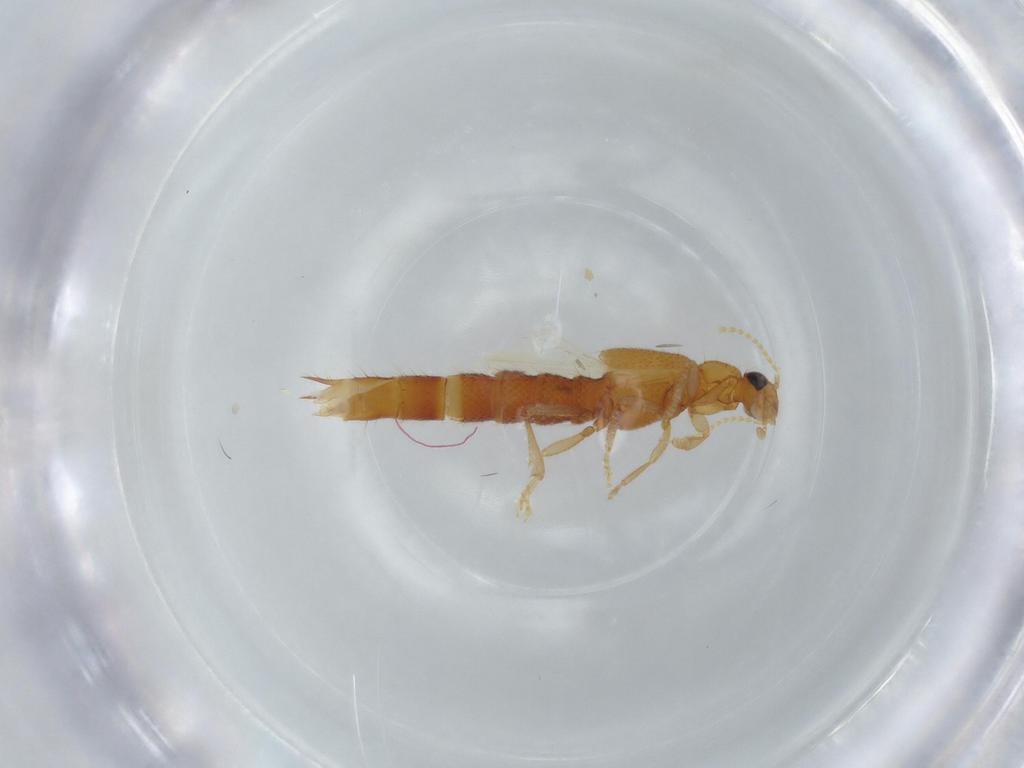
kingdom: Animalia
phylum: Arthropoda
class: Insecta
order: Coleoptera
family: Staphylinidae
